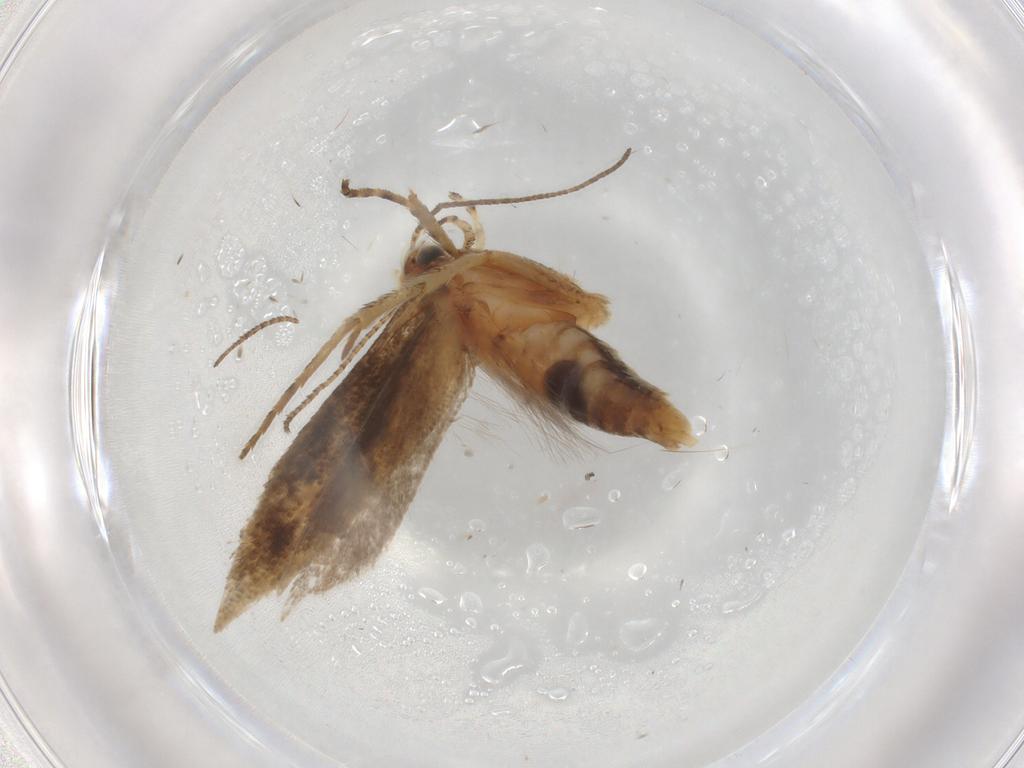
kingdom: Animalia
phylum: Arthropoda
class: Insecta
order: Lepidoptera
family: Gelechiidae
